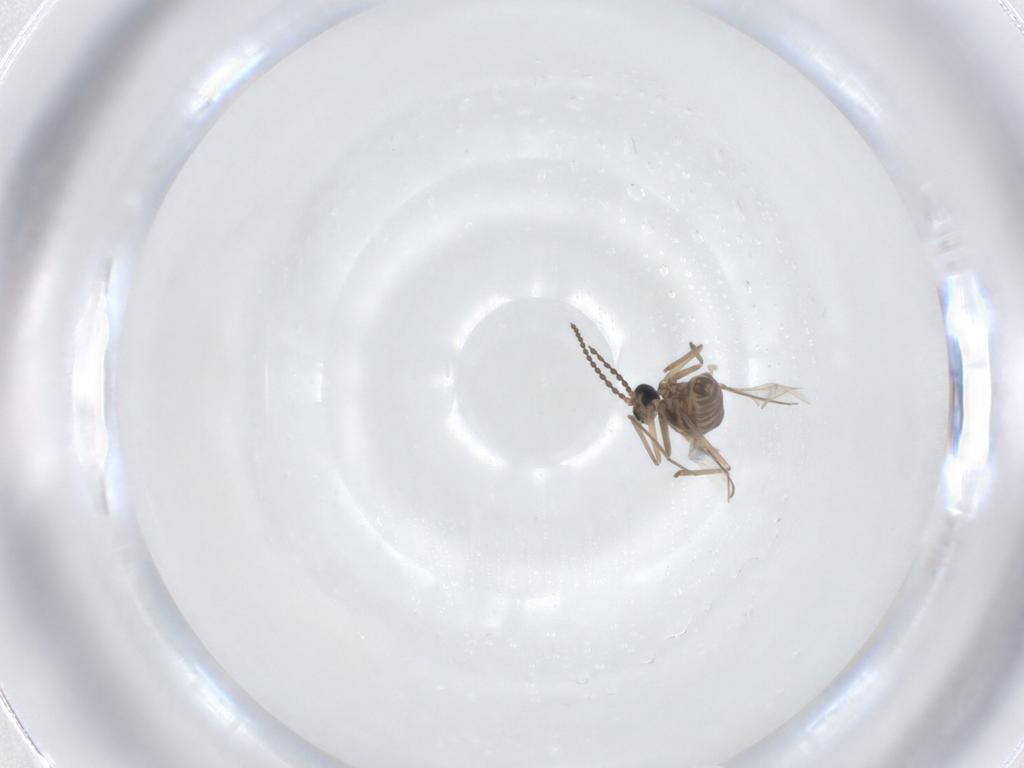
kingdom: Animalia
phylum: Arthropoda
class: Insecta
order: Diptera
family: Cecidomyiidae
